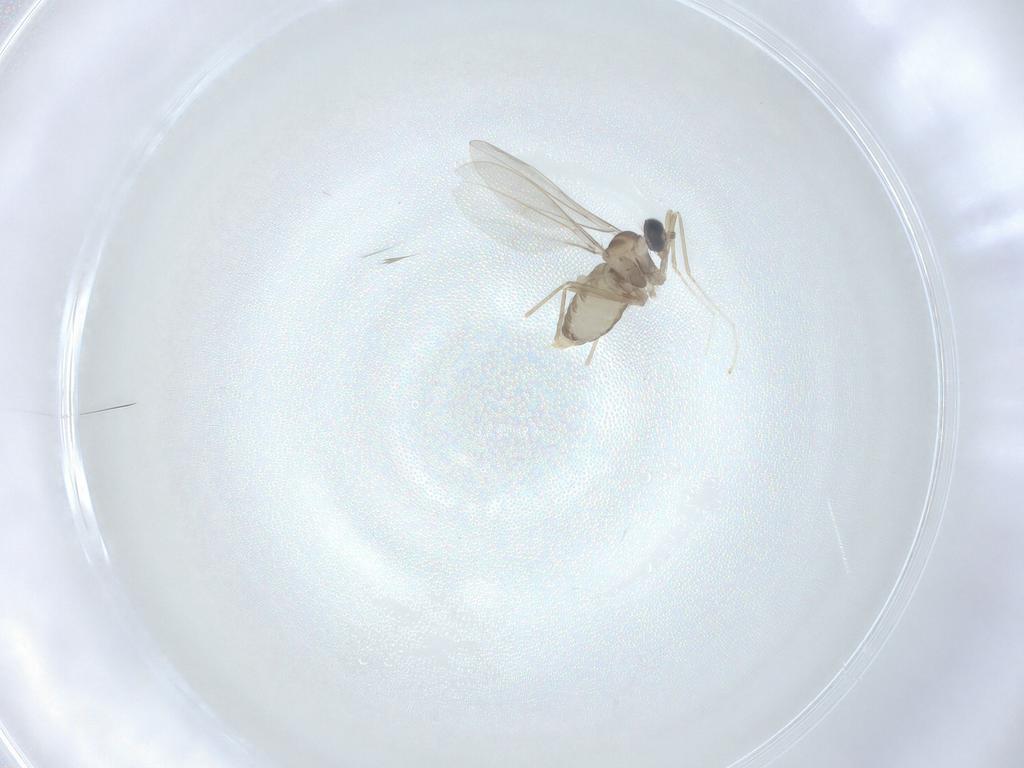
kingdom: Animalia
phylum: Arthropoda
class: Insecta
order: Diptera
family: Cecidomyiidae
